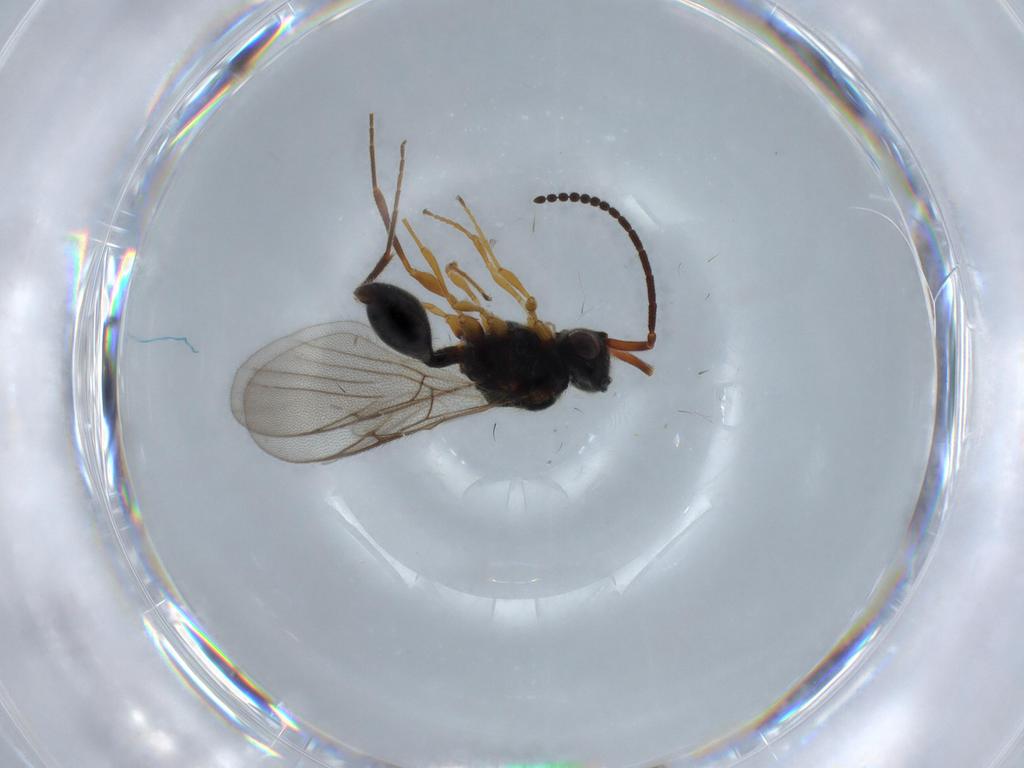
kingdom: Animalia
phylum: Arthropoda
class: Insecta
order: Hymenoptera
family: Diapriidae
